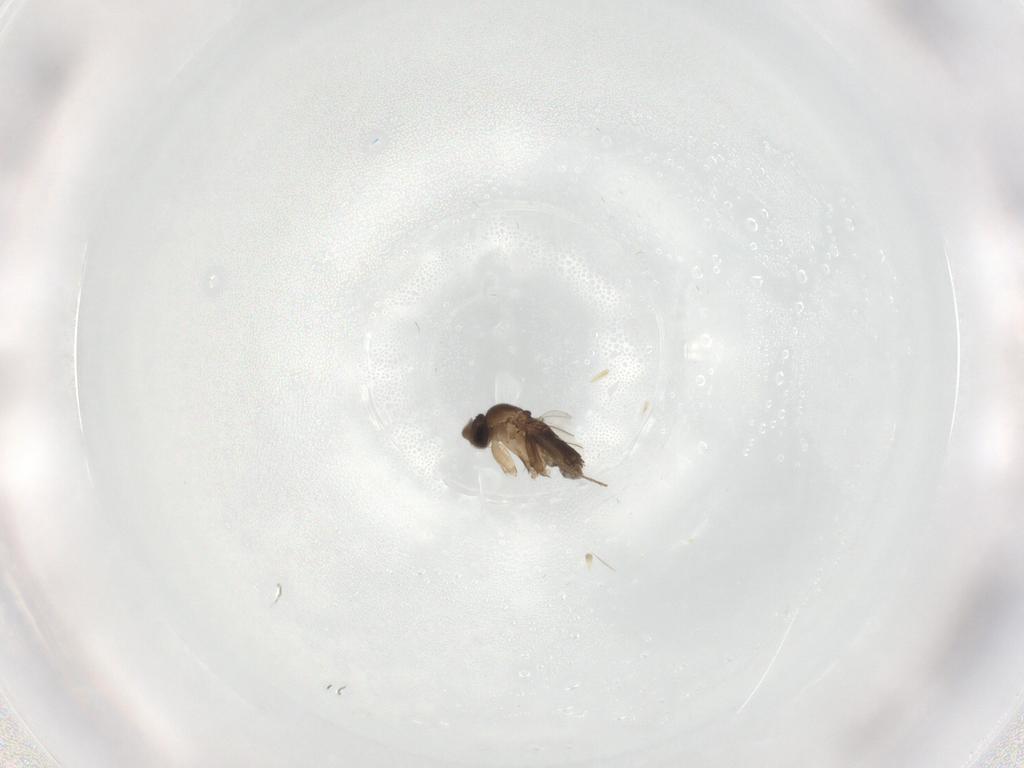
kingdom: Animalia
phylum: Arthropoda
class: Insecta
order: Diptera
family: Phoridae
